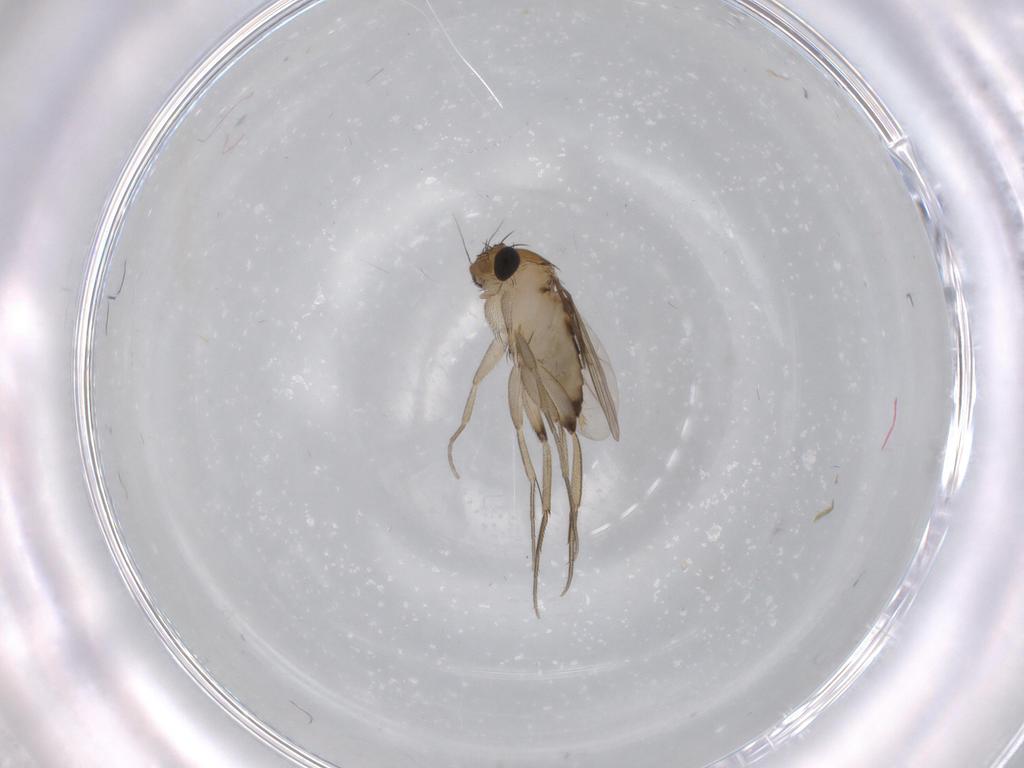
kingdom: Animalia
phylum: Arthropoda
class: Insecta
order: Diptera
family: Phoridae
